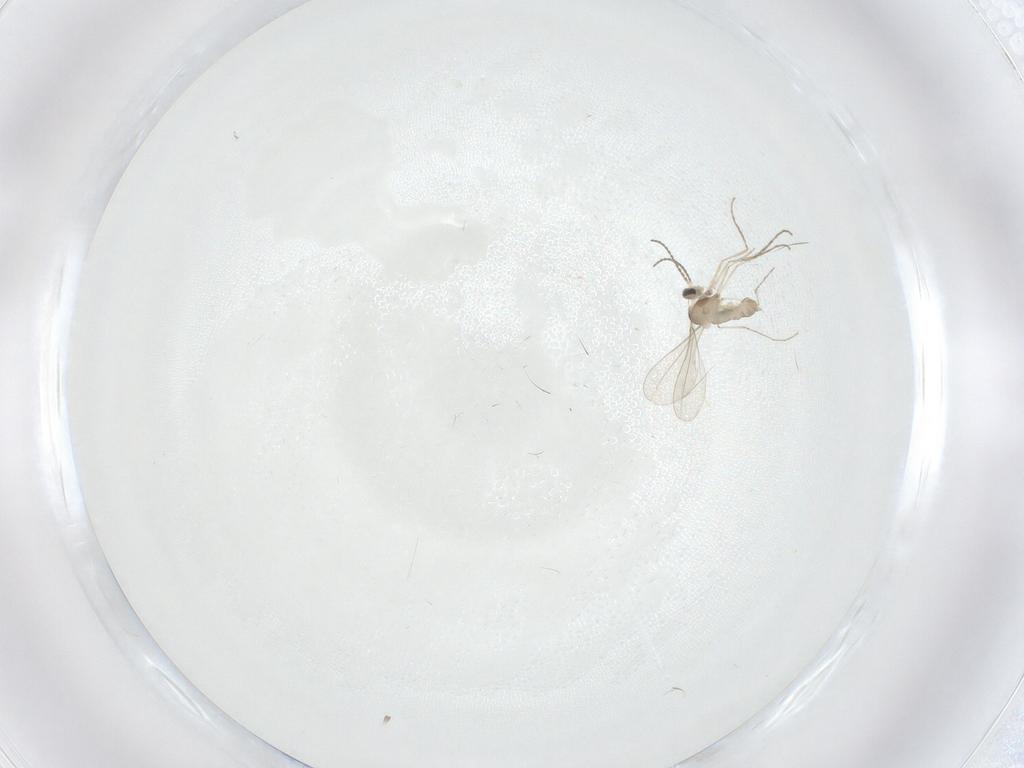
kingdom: Animalia
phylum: Arthropoda
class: Insecta
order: Diptera
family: Cecidomyiidae
